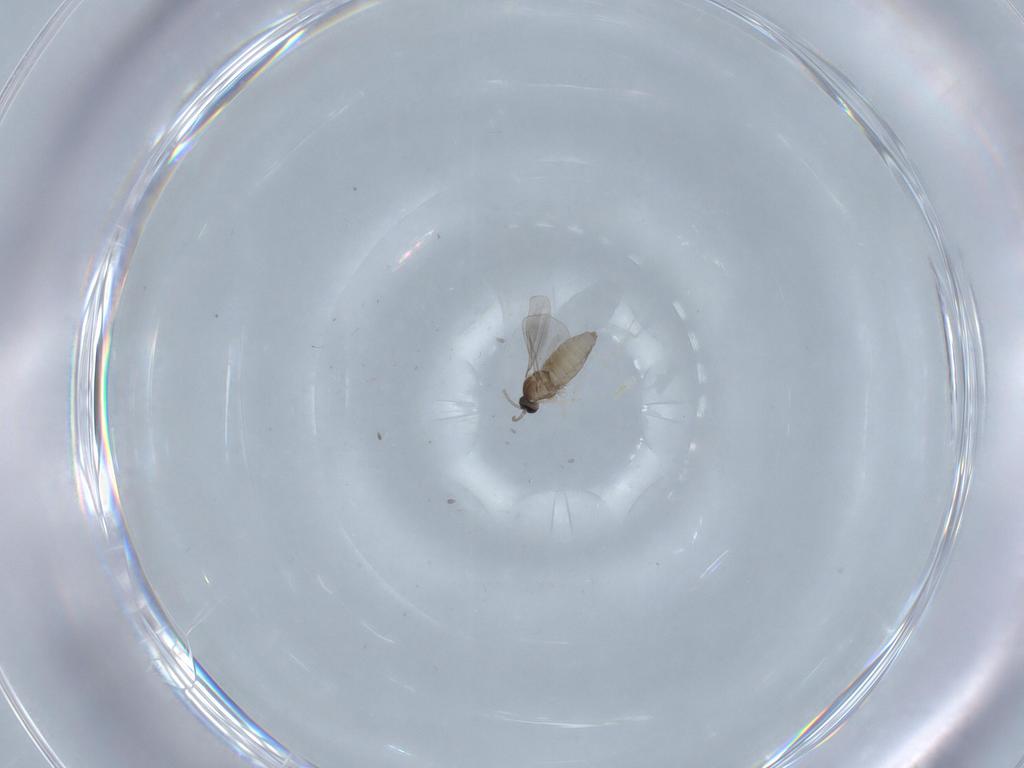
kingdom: Animalia
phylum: Arthropoda
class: Insecta
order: Diptera
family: Cecidomyiidae
